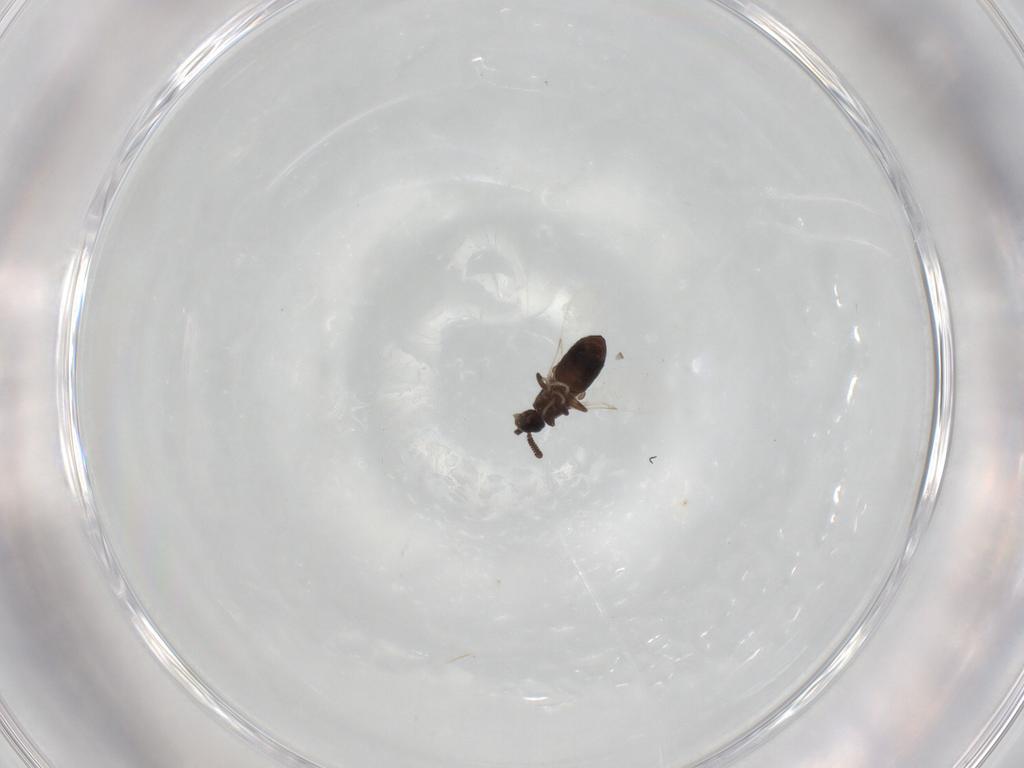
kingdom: Animalia
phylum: Arthropoda
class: Insecta
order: Diptera
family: Scatopsidae
